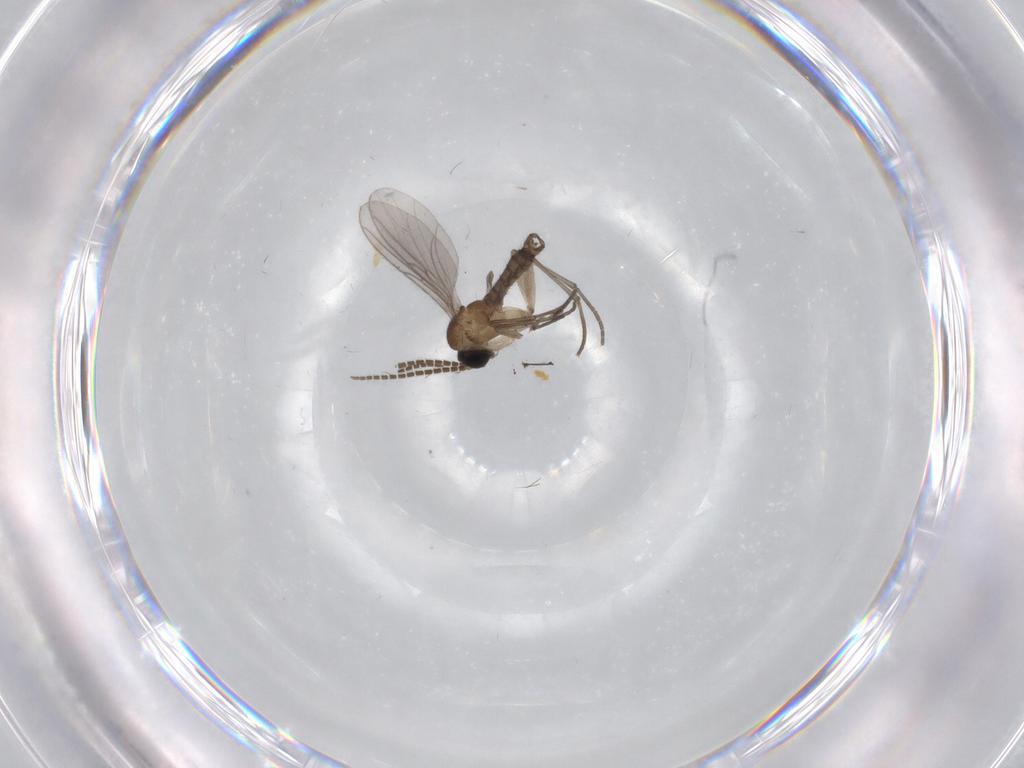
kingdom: Animalia
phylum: Arthropoda
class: Insecta
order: Diptera
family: Sciaridae
